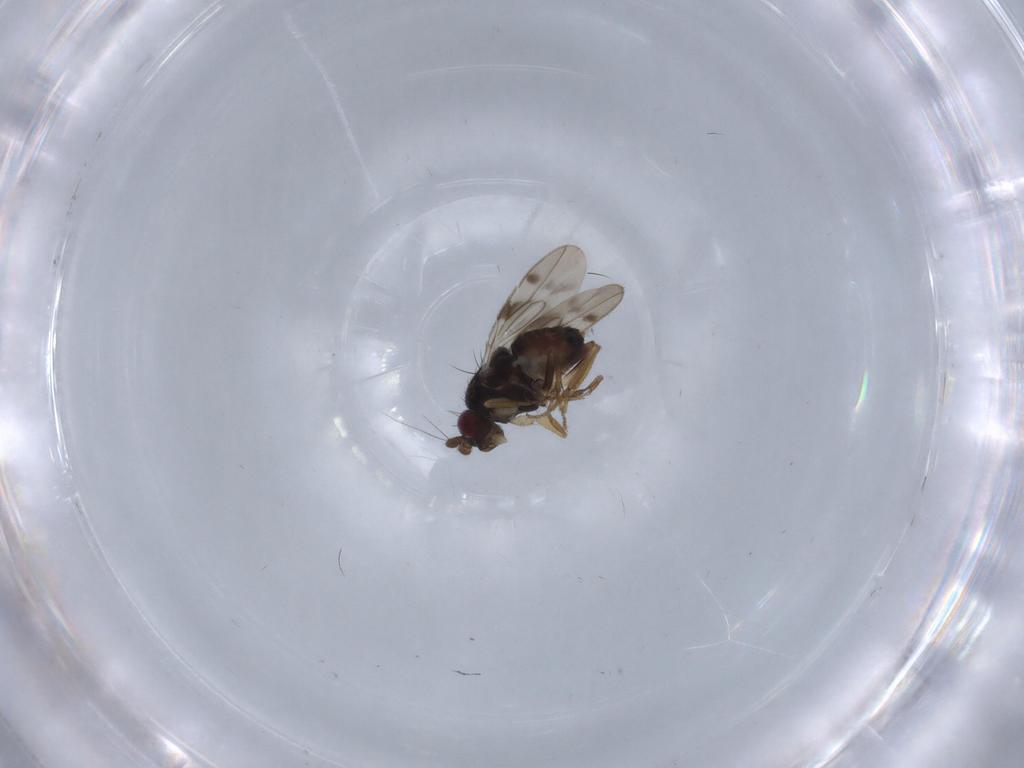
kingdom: Animalia
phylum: Arthropoda
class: Insecta
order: Diptera
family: Sphaeroceridae
